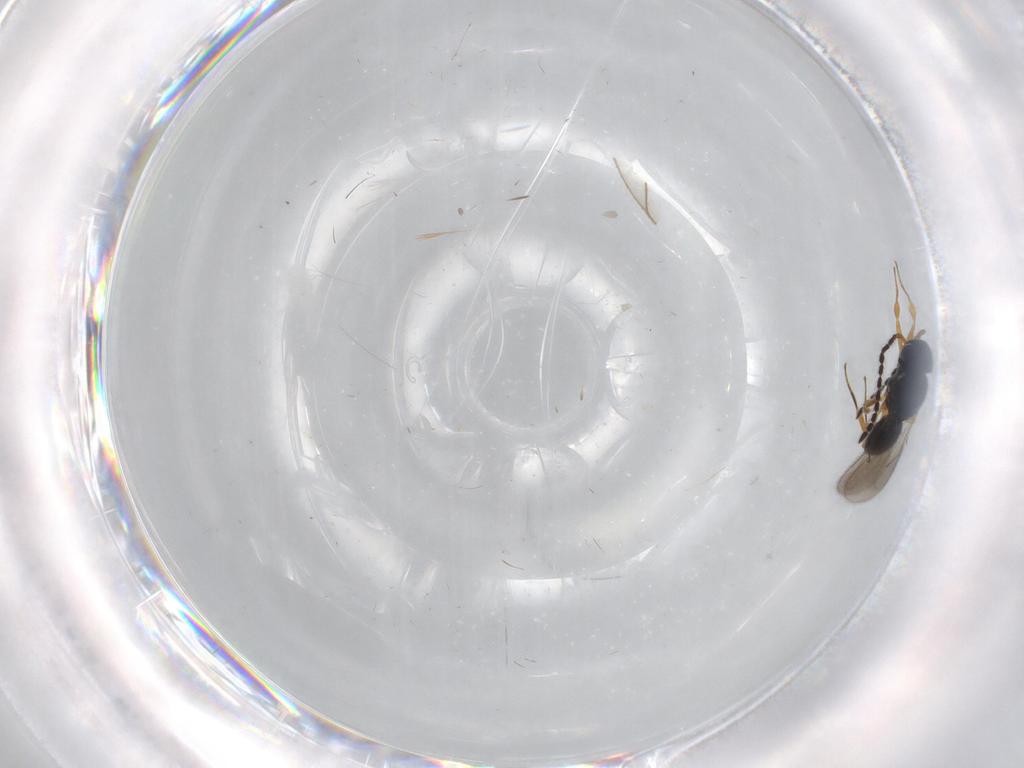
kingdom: Animalia
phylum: Arthropoda
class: Insecta
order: Hymenoptera
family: Scelionidae
